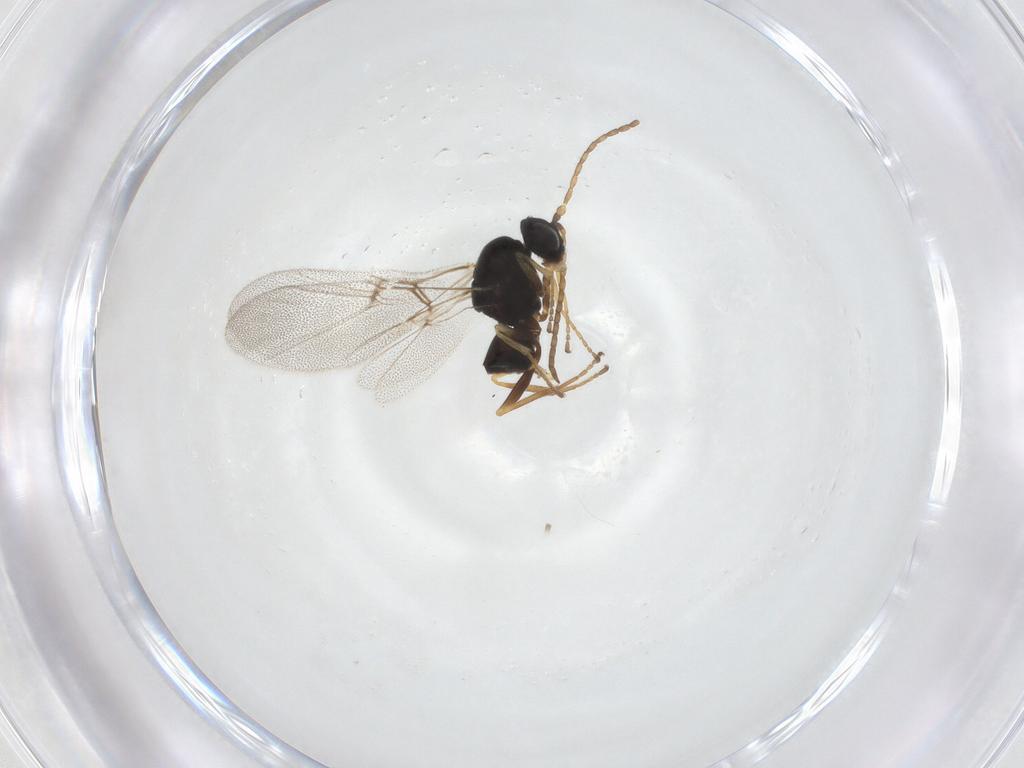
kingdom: Animalia
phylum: Arthropoda
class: Insecta
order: Hymenoptera
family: Cynipidae
